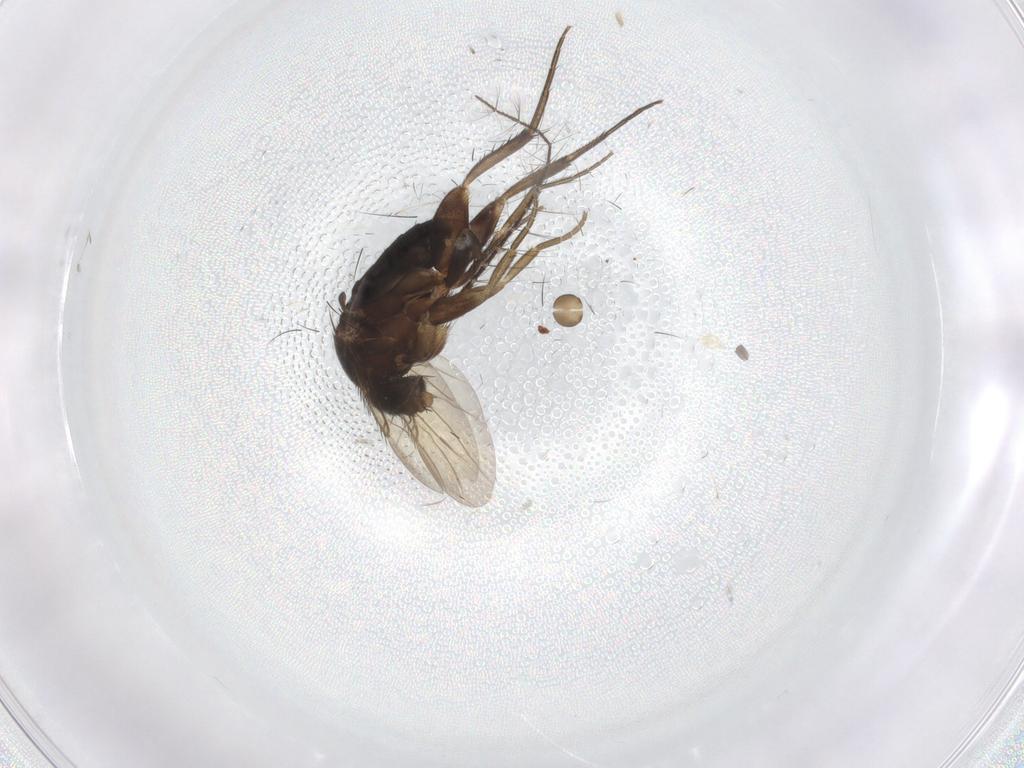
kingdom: Animalia
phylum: Arthropoda
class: Insecta
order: Diptera
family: Phoridae
